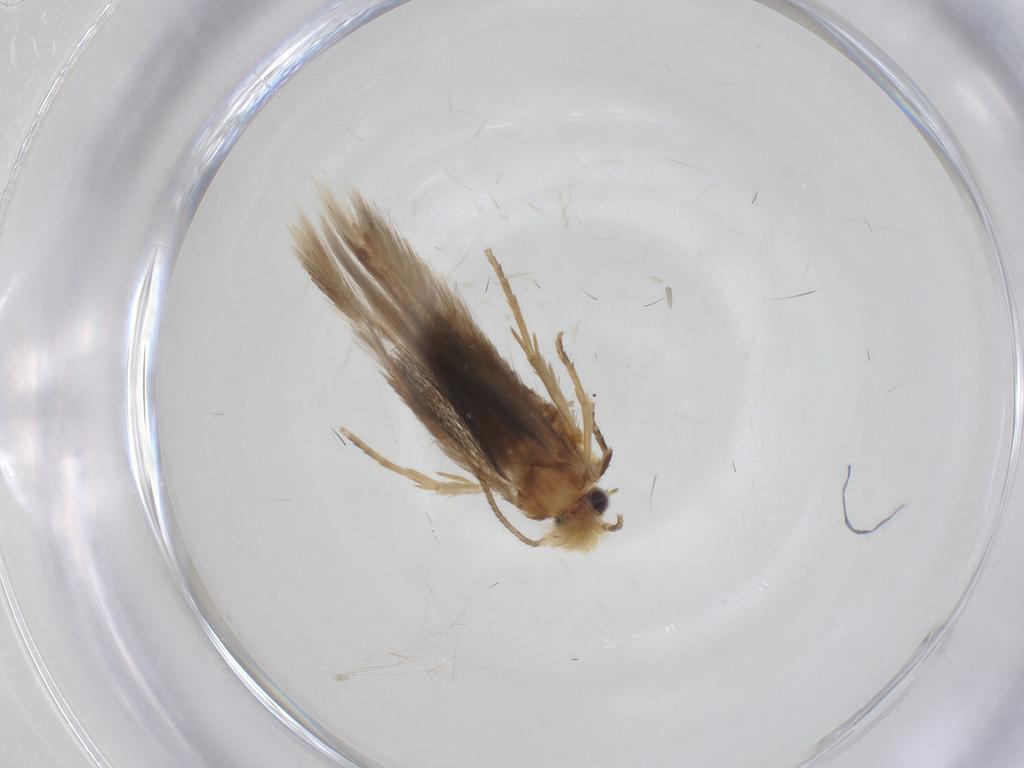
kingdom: Animalia
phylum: Arthropoda
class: Insecta
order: Lepidoptera
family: Nepticulidae
